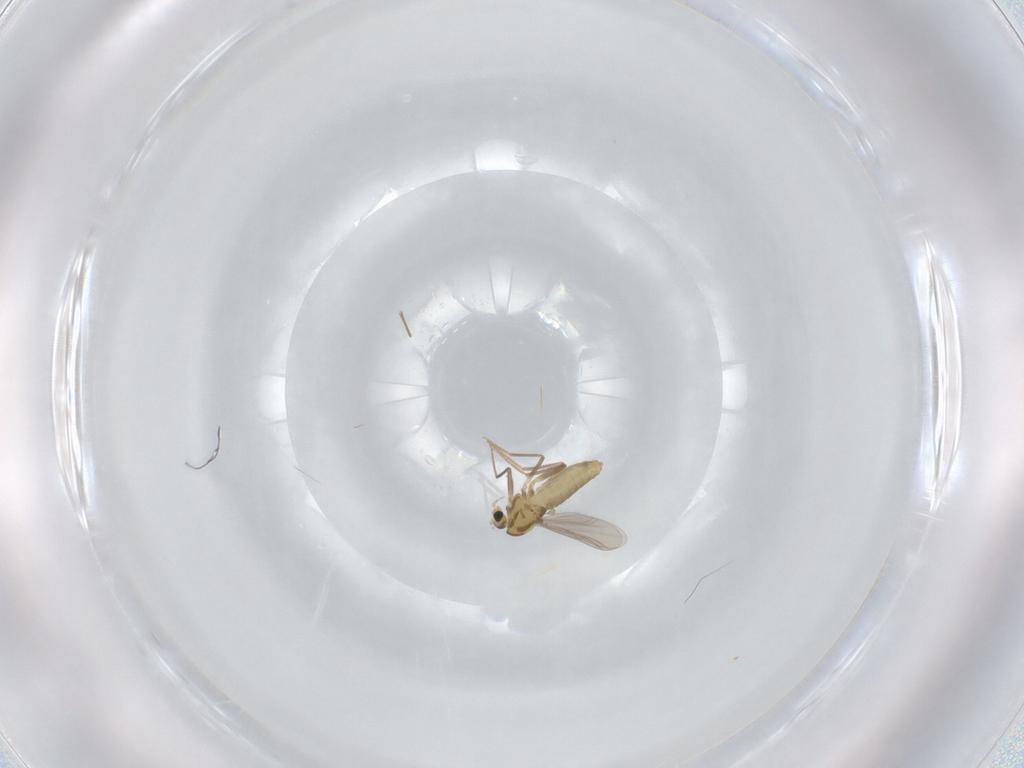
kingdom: Animalia
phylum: Arthropoda
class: Insecta
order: Diptera
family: Chironomidae
